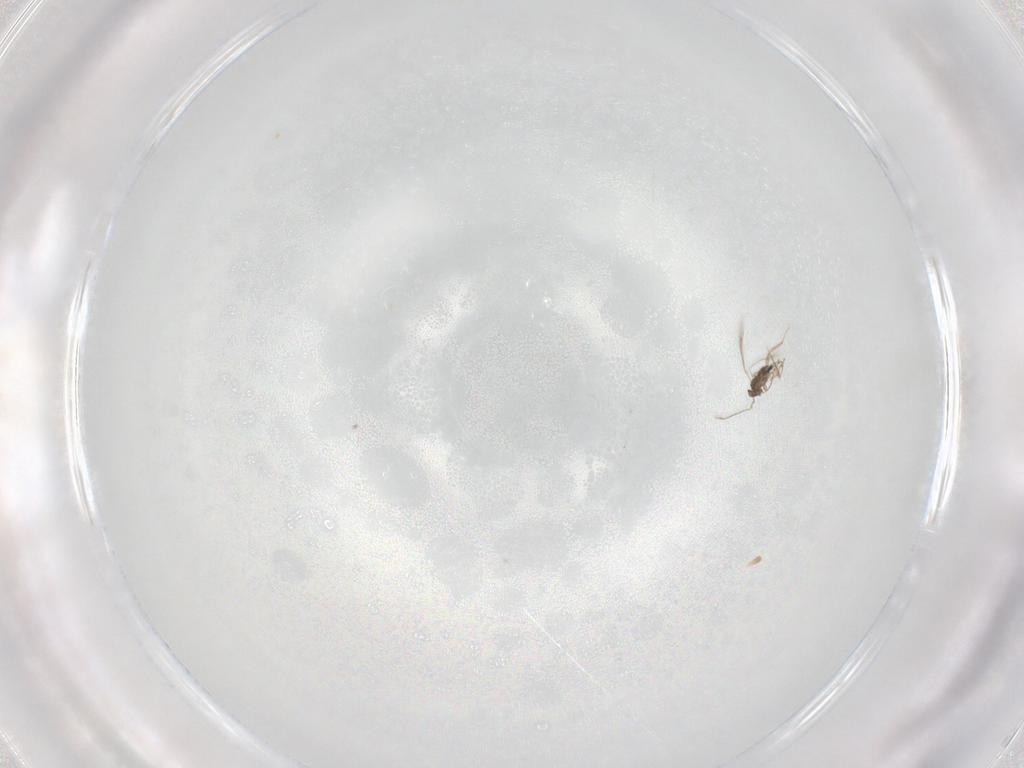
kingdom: Animalia
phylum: Arthropoda
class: Insecta
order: Hymenoptera
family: Mymaridae
